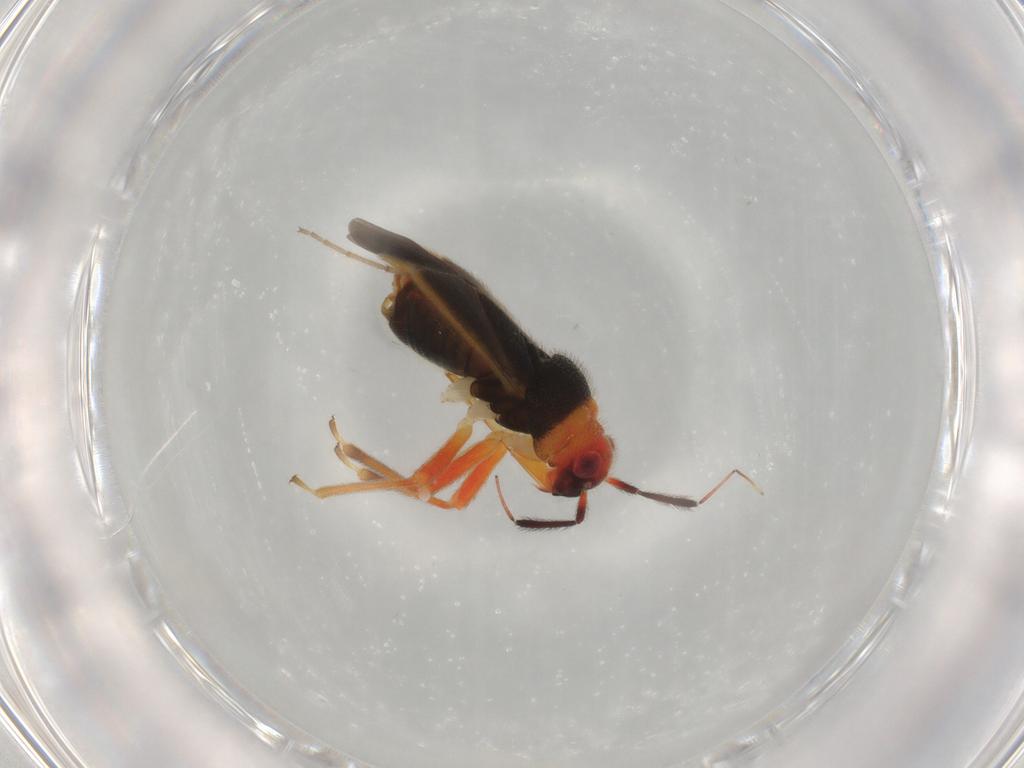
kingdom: Animalia
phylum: Arthropoda
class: Insecta
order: Hemiptera
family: Miridae
